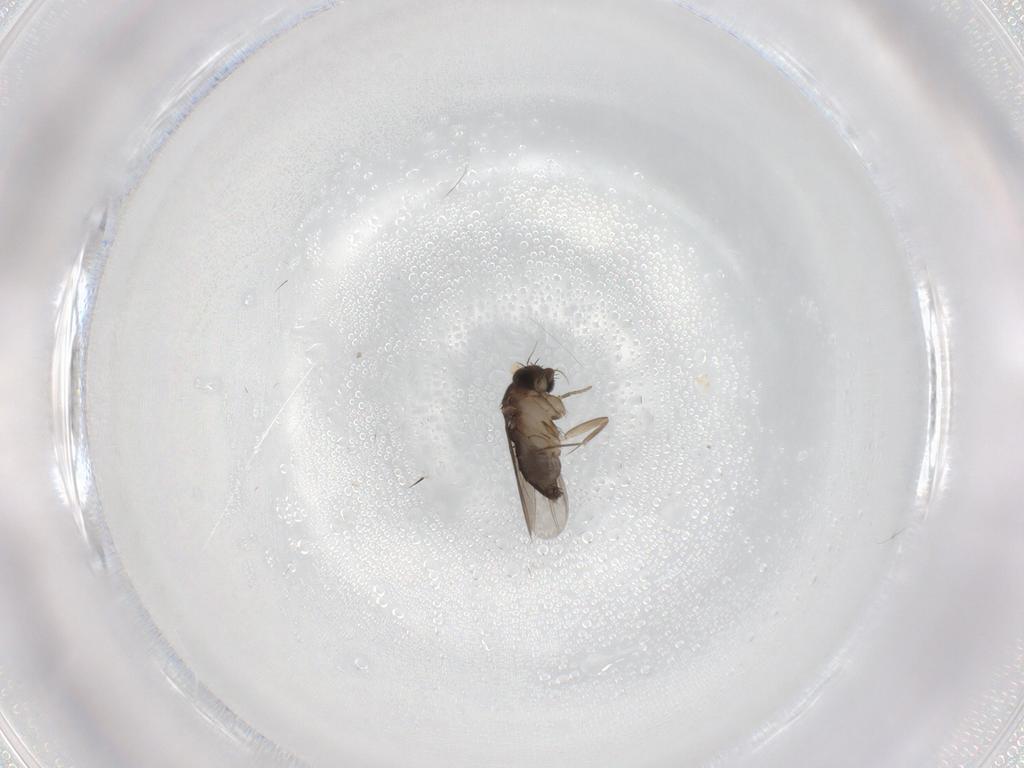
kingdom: Animalia
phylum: Arthropoda
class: Insecta
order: Diptera
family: Phoridae
